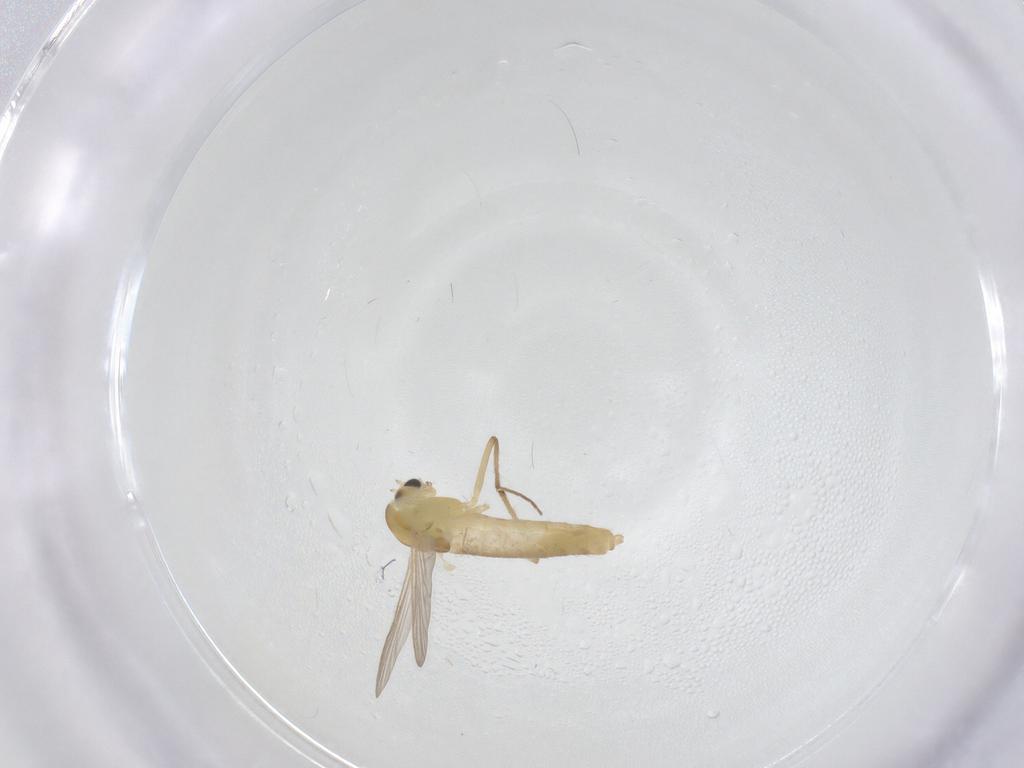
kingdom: Animalia
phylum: Arthropoda
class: Insecta
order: Diptera
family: Chironomidae
